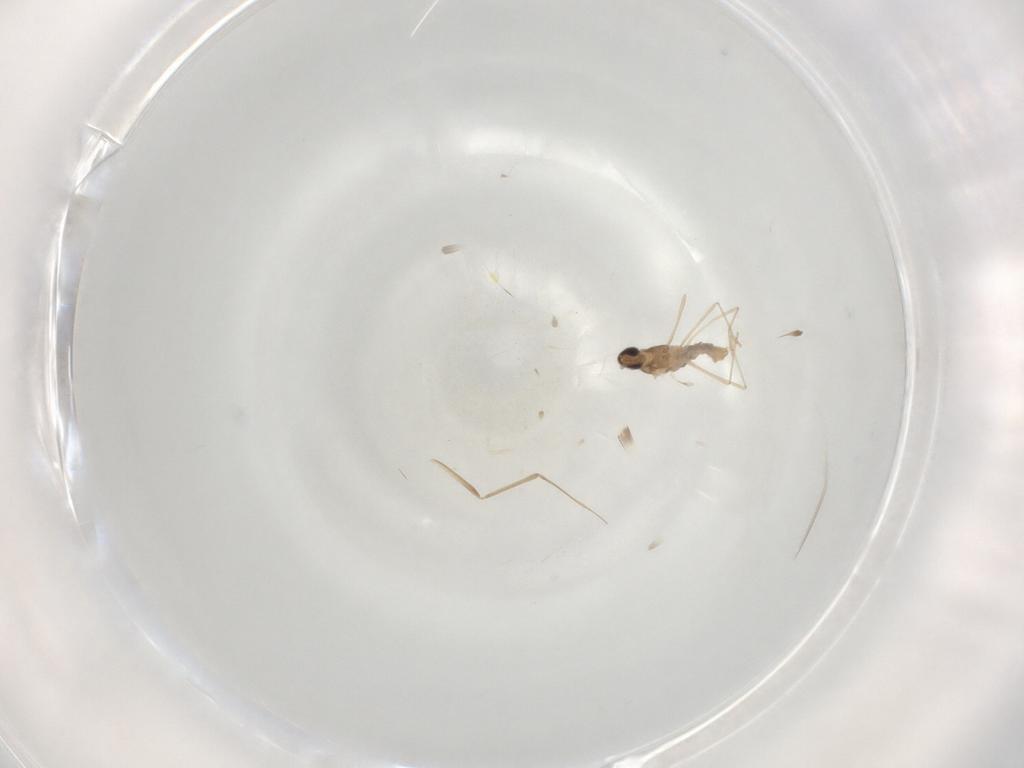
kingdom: Animalia
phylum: Arthropoda
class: Insecta
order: Diptera
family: Cecidomyiidae
